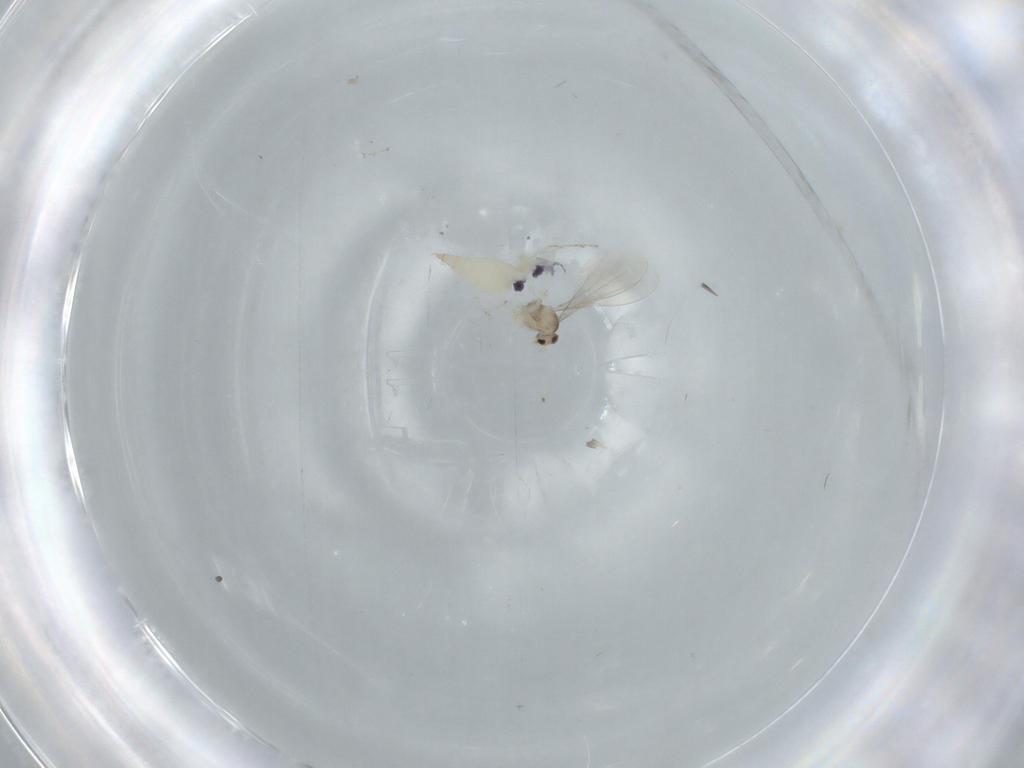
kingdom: Animalia
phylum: Arthropoda
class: Insecta
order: Diptera
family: Cecidomyiidae
